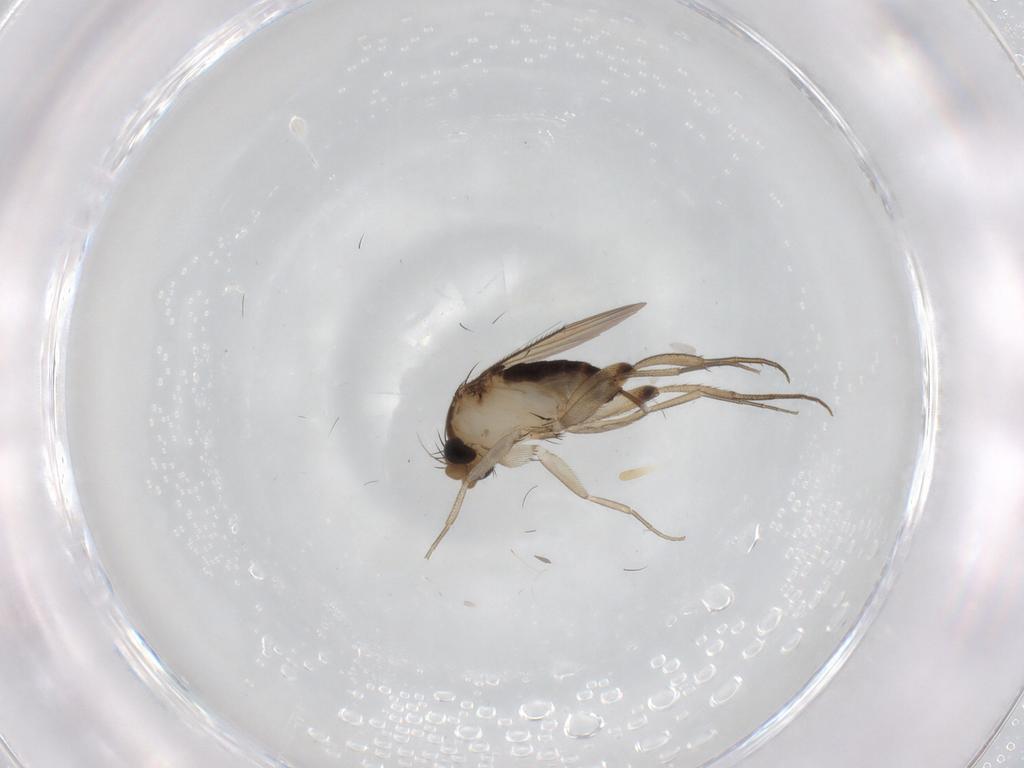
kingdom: Animalia
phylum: Arthropoda
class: Insecta
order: Diptera
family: Phoridae
